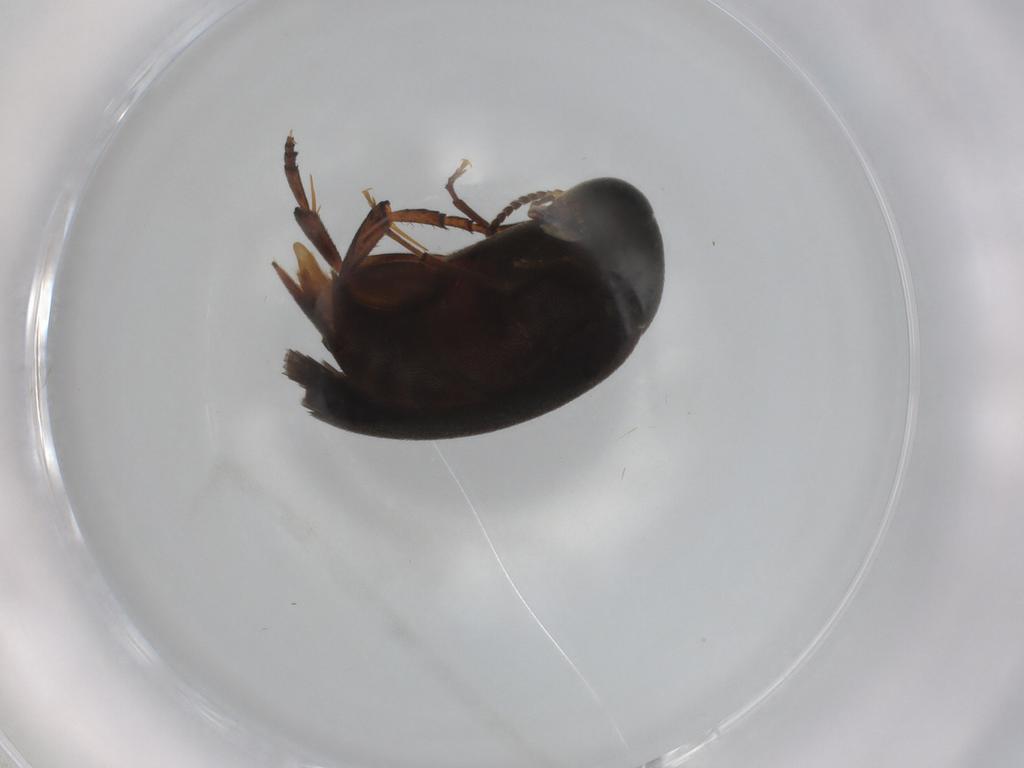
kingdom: Animalia
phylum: Arthropoda
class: Insecta
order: Coleoptera
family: Mordellidae
